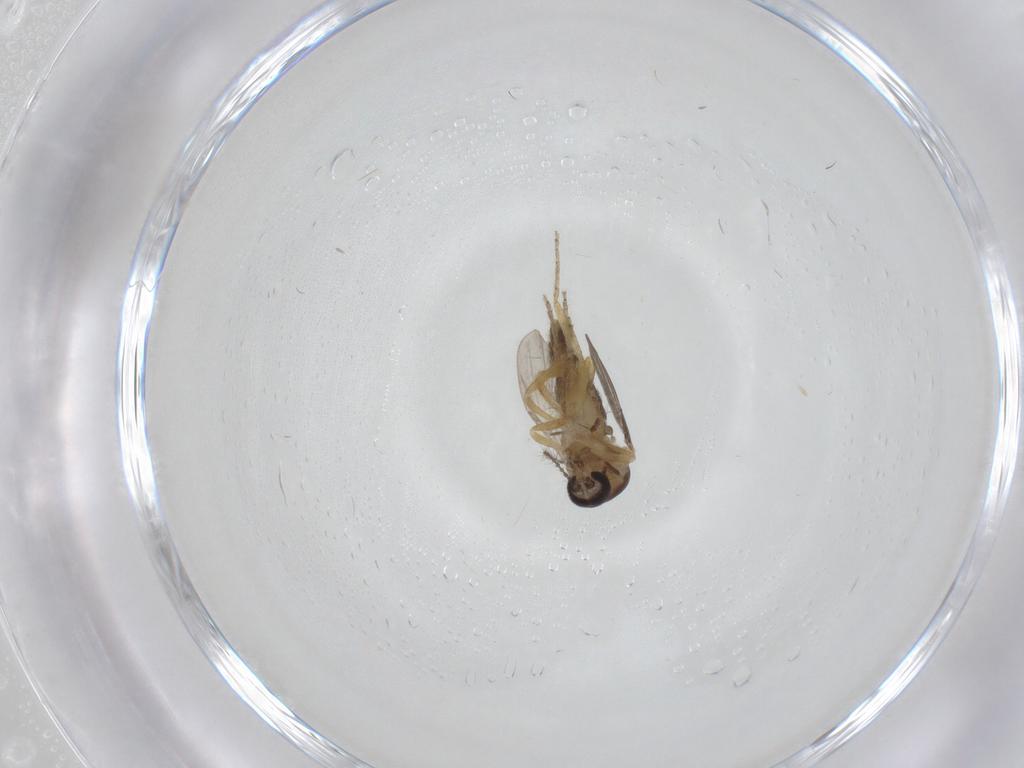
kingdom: Animalia
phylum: Arthropoda
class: Insecta
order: Diptera
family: Ceratopogonidae
